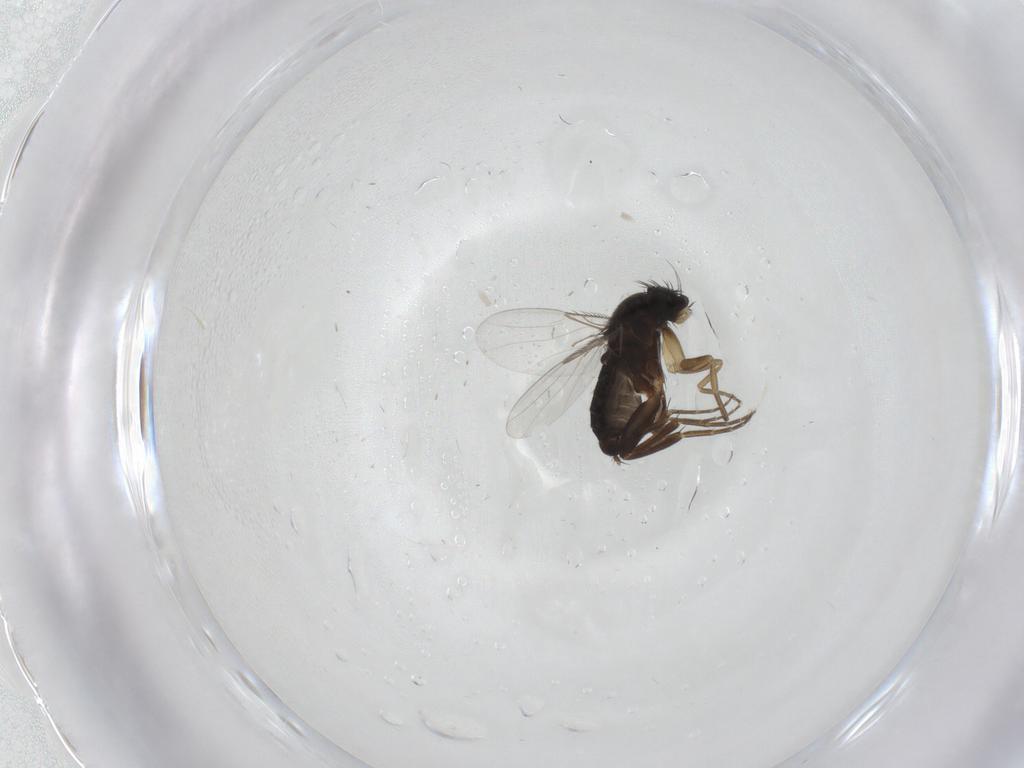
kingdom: Animalia
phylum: Arthropoda
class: Insecta
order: Diptera
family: Phoridae
